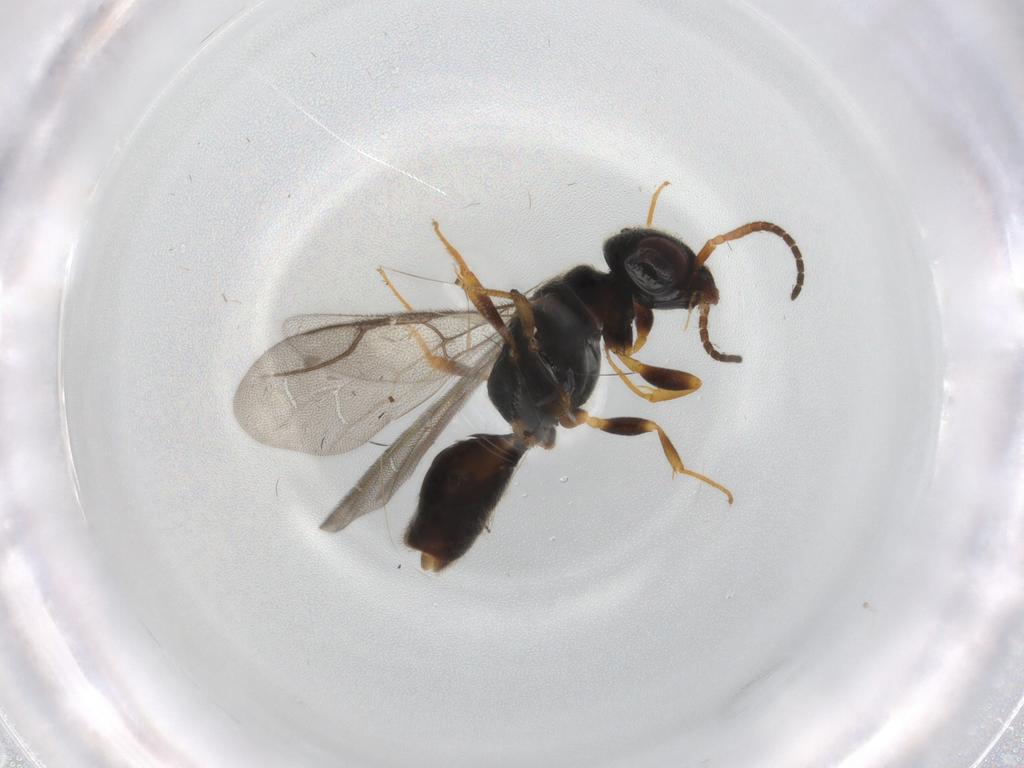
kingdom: Animalia
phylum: Arthropoda
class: Insecta
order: Hymenoptera
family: Bethylidae
